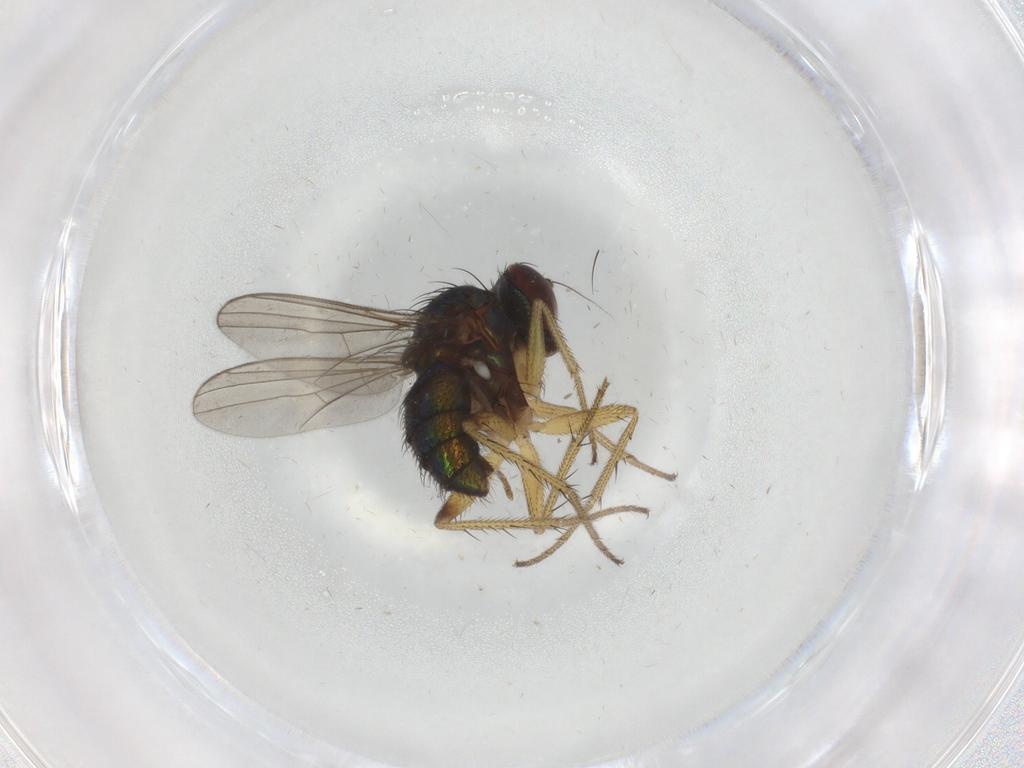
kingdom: Animalia
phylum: Arthropoda
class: Insecta
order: Diptera
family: Dolichopodidae
